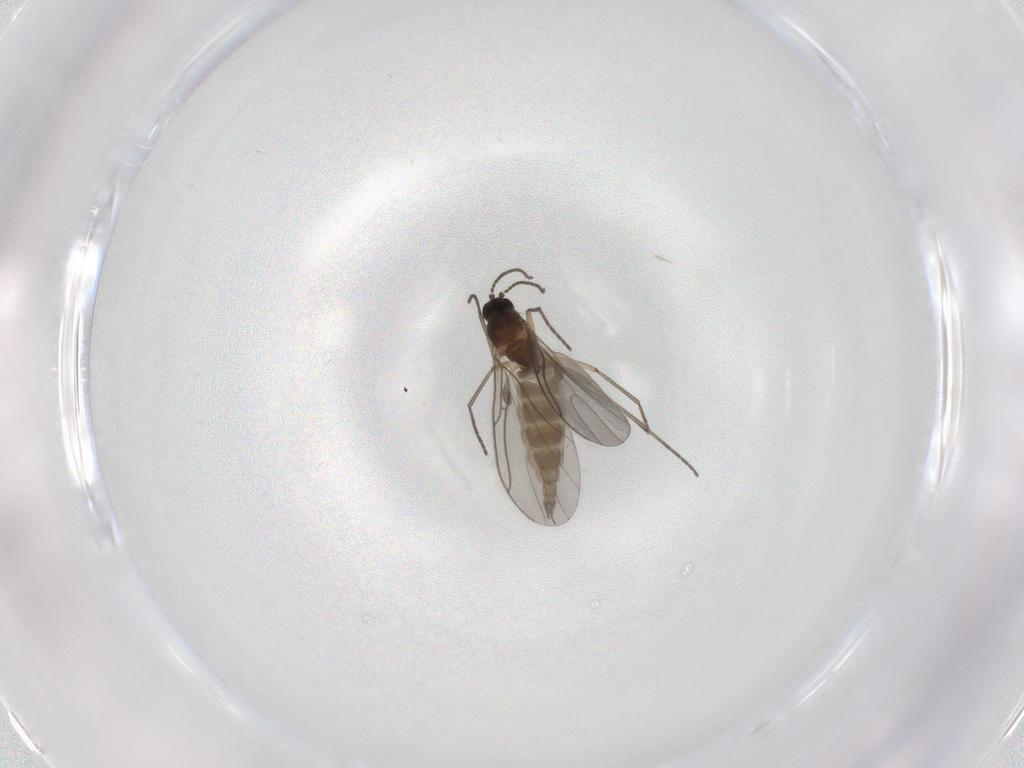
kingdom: Animalia
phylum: Arthropoda
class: Insecta
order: Diptera
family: Sciaridae
